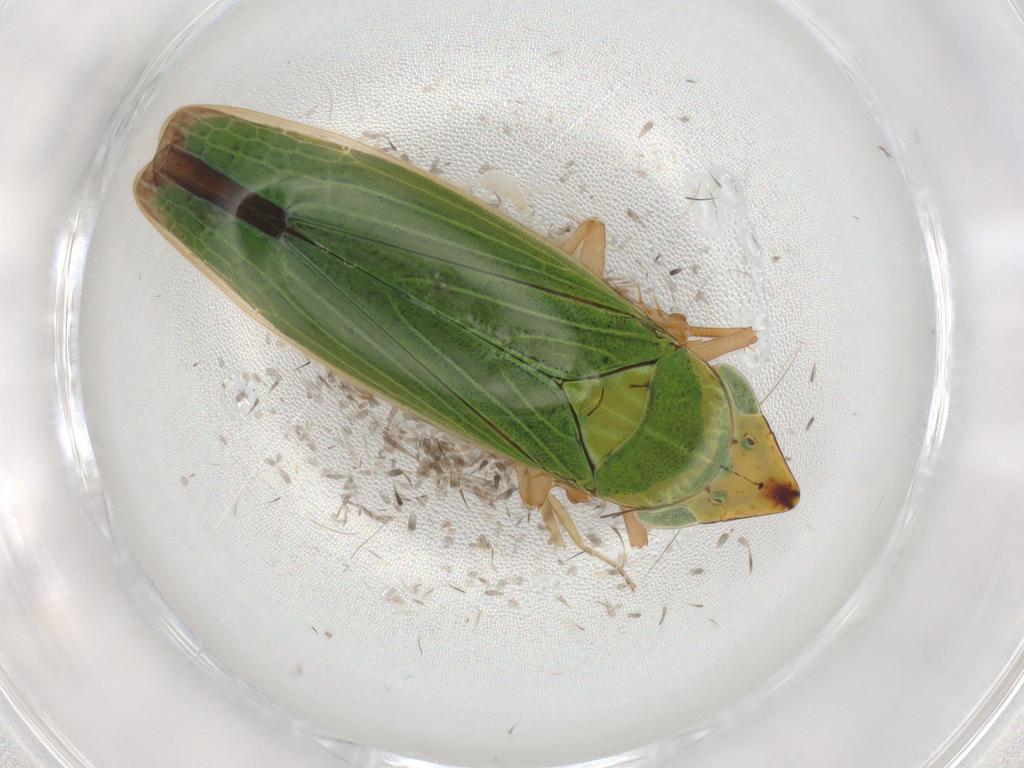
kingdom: Animalia
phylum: Arthropoda
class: Insecta
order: Hemiptera
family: Cicadellidae
